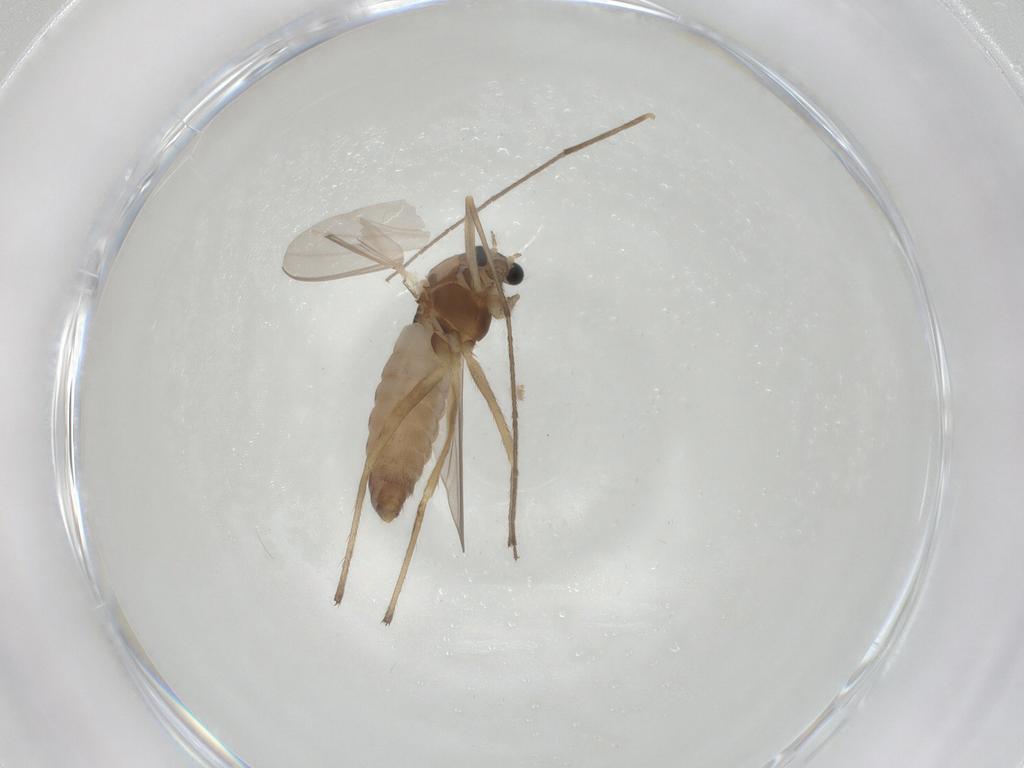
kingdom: Animalia
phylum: Arthropoda
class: Insecta
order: Diptera
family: Chironomidae
